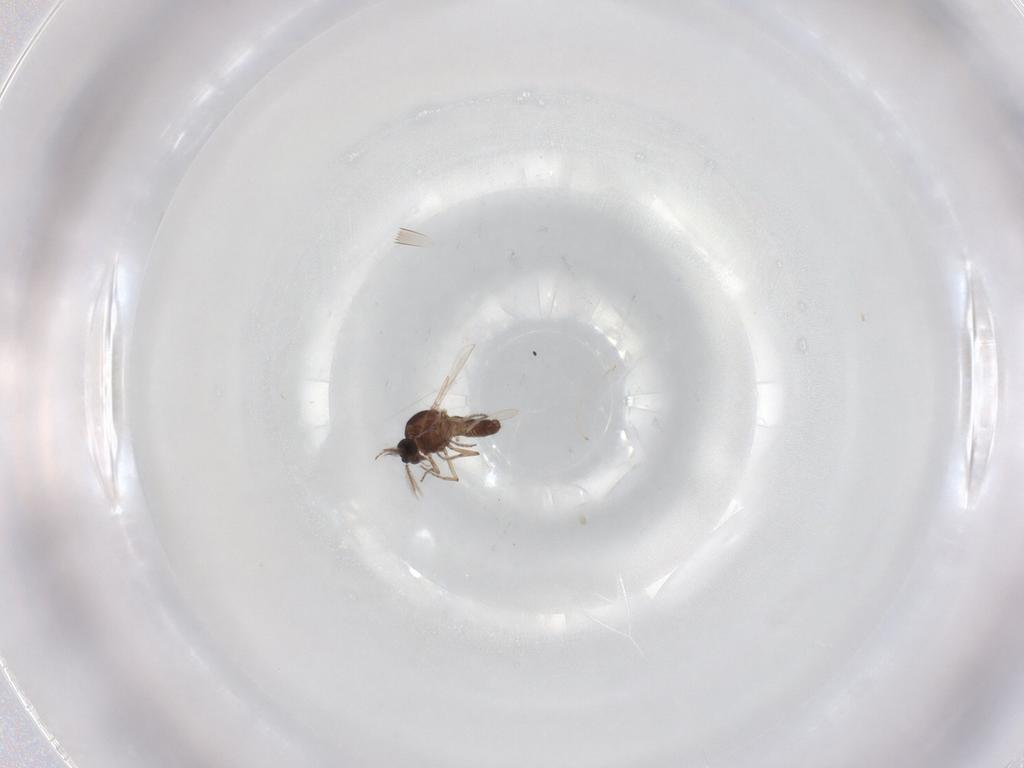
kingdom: Animalia
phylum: Arthropoda
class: Insecta
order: Diptera
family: Ceratopogonidae
